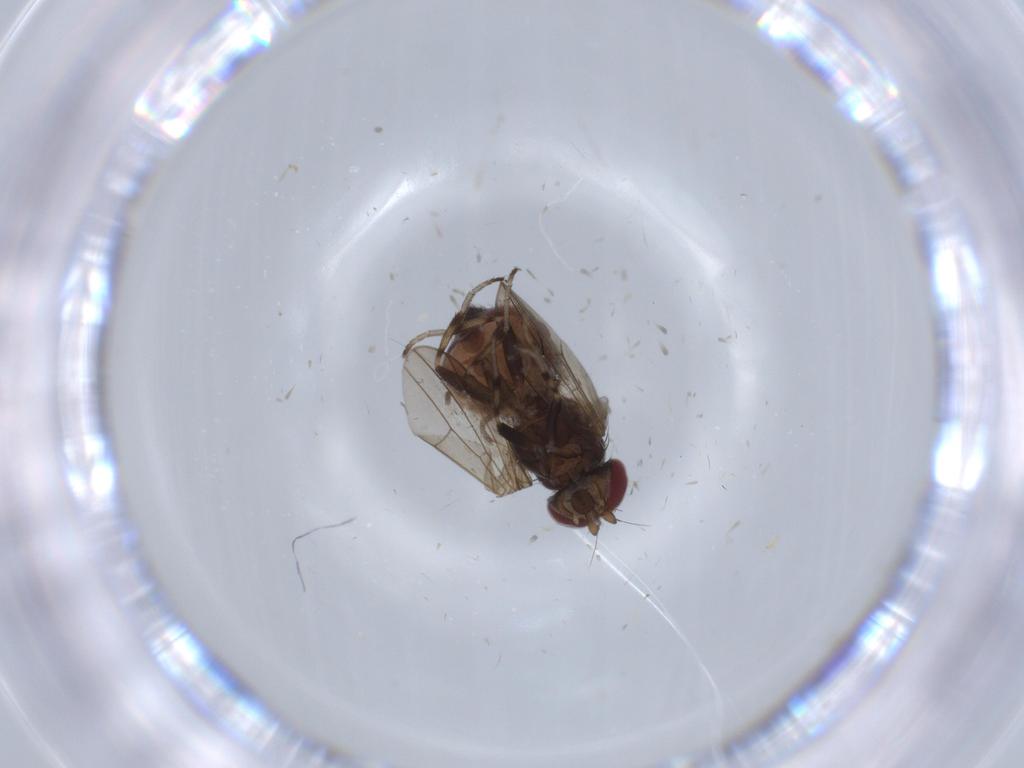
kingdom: Animalia
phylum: Arthropoda
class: Insecta
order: Diptera
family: Heleomyzidae
